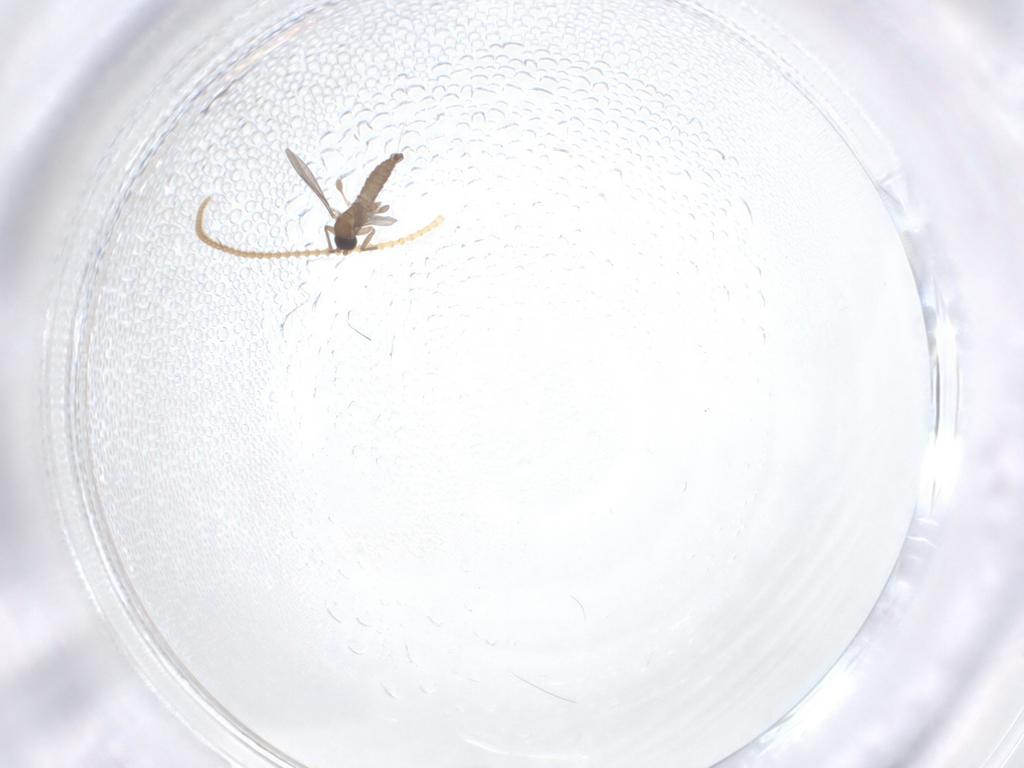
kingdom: Animalia
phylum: Arthropoda
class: Insecta
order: Diptera
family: Sciaridae
